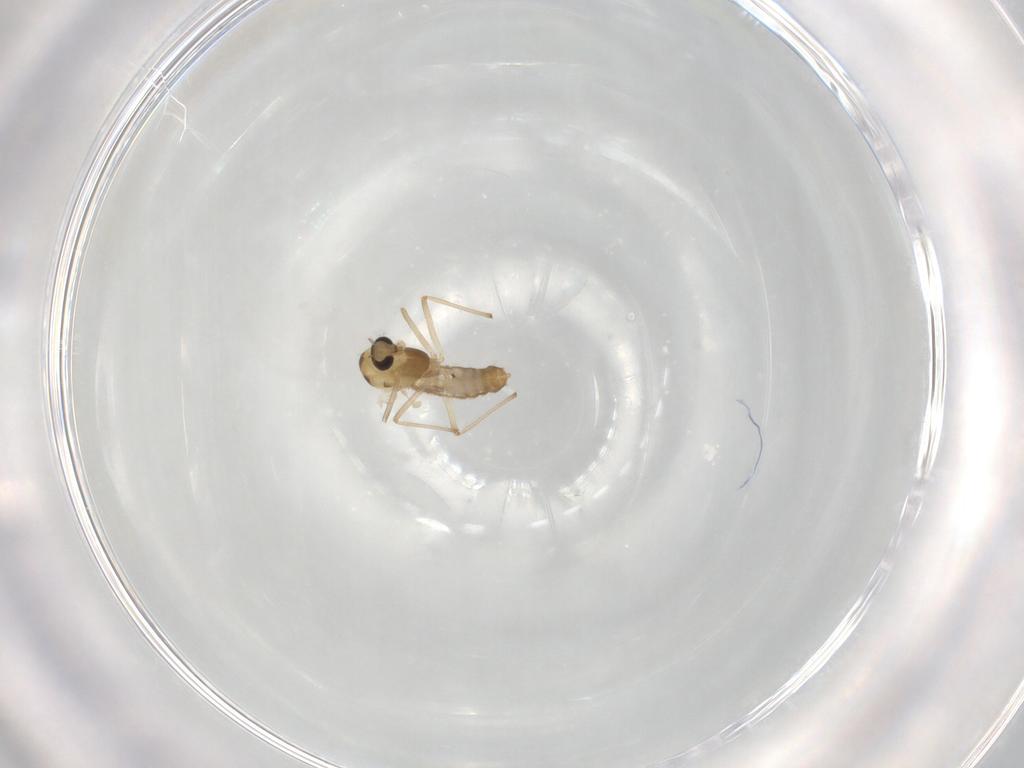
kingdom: Animalia
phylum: Arthropoda
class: Insecta
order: Diptera
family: Chironomidae
